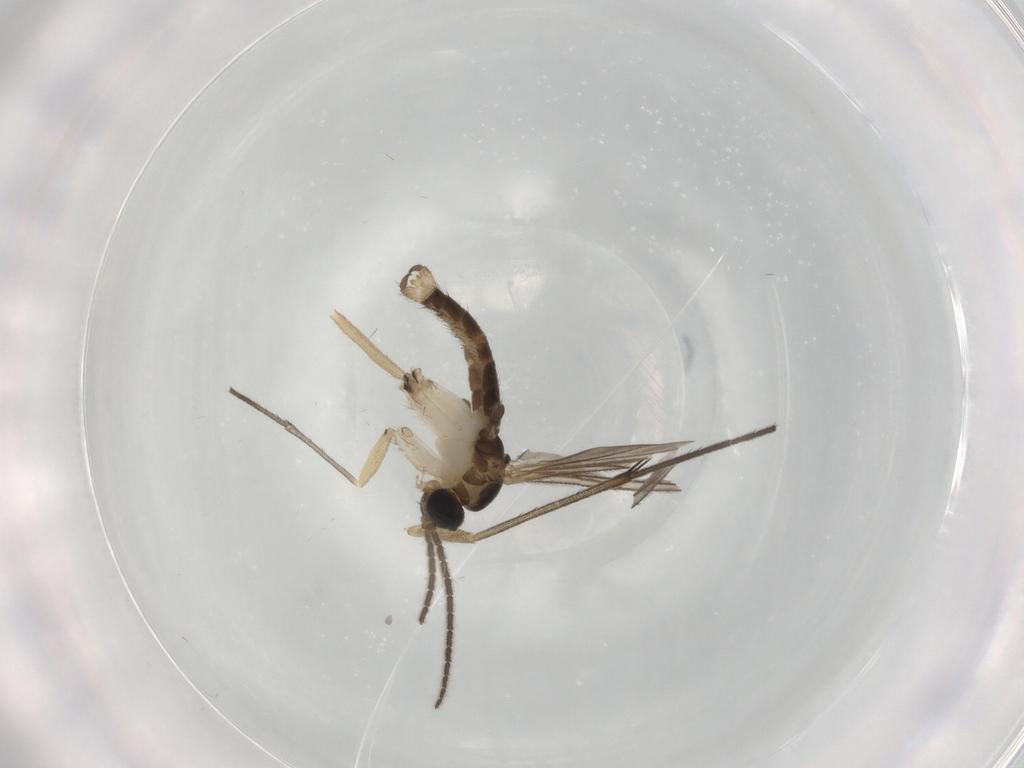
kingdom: Animalia
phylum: Arthropoda
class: Insecta
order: Diptera
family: Sciaridae
